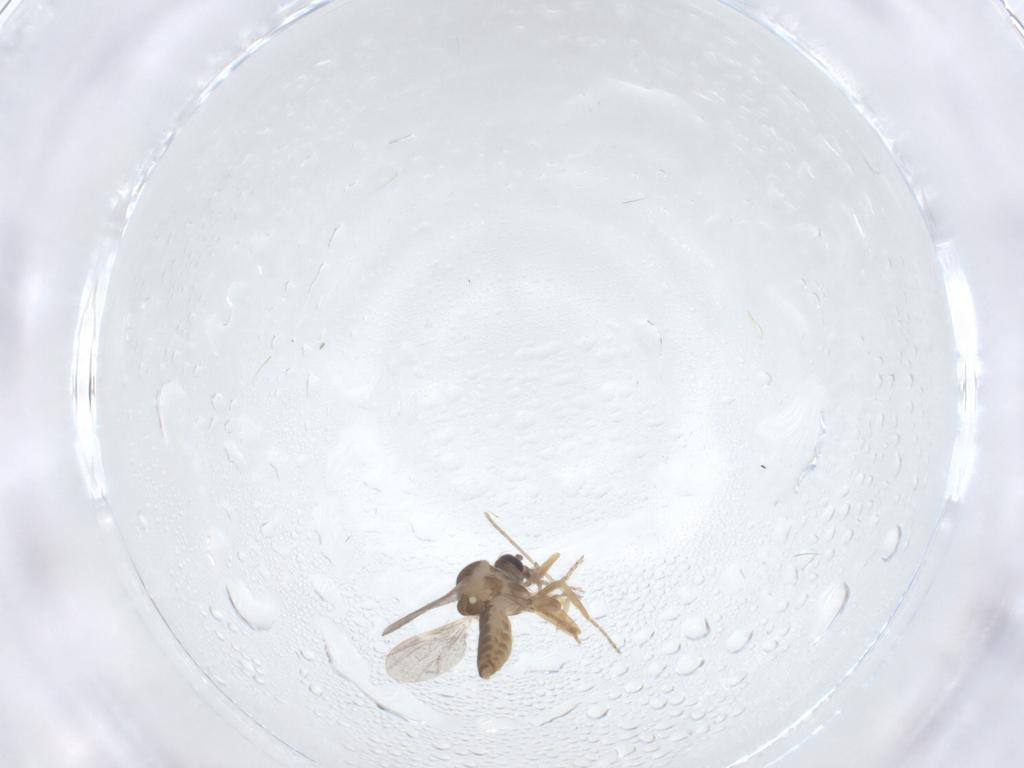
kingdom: Animalia
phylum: Arthropoda
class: Insecta
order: Diptera
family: Ceratopogonidae
